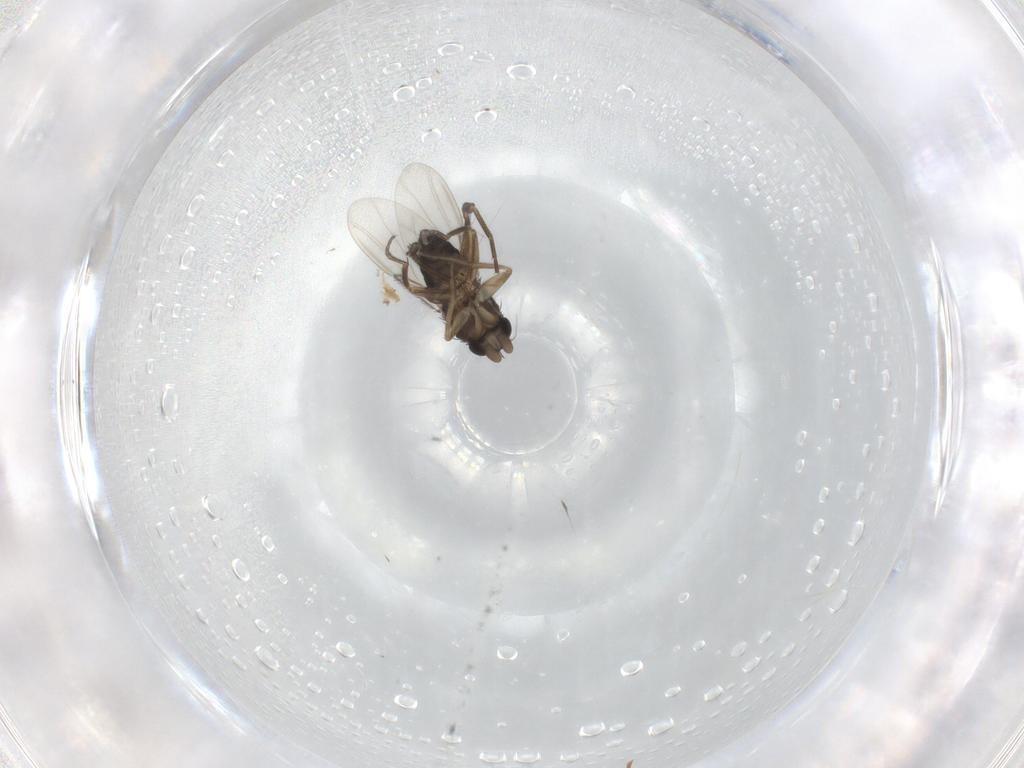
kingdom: Animalia
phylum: Arthropoda
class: Insecta
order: Diptera
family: Phoridae
